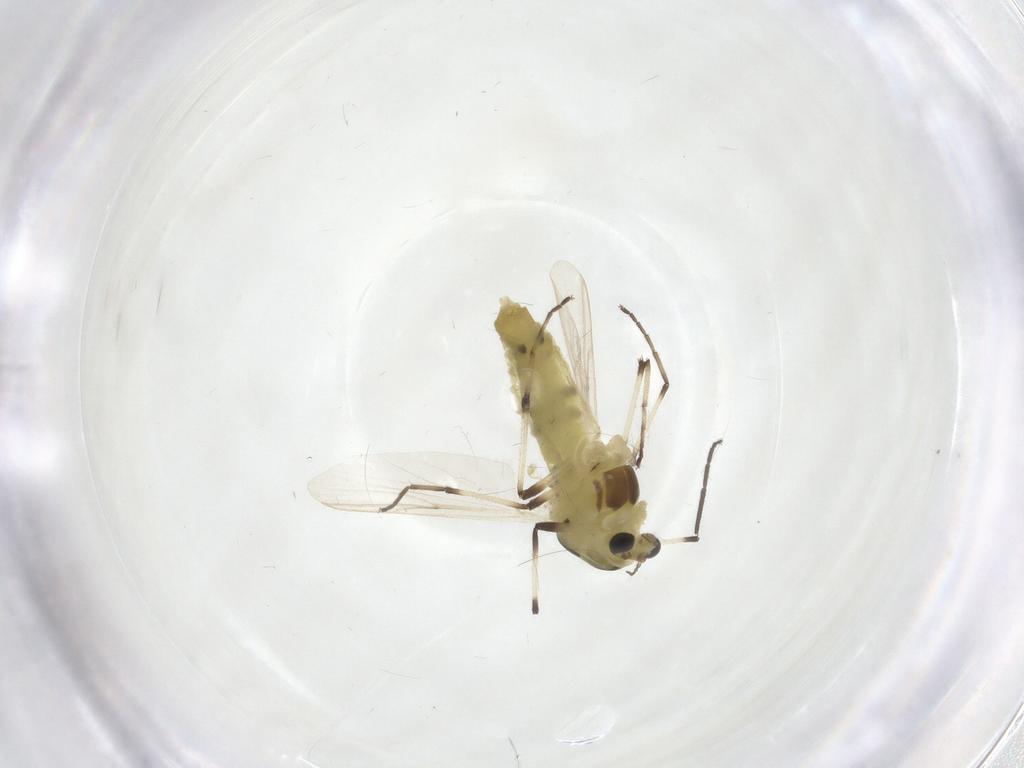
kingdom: Animalia
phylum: Arthropoda
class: Insecta
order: Diptera
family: Chironomidae
